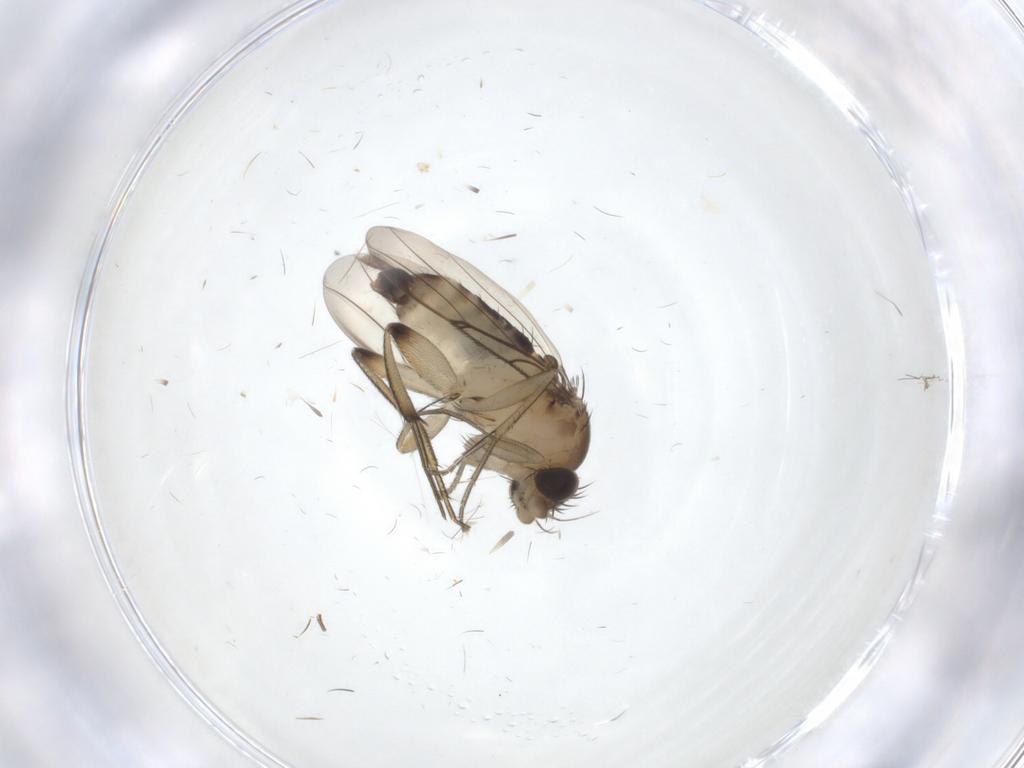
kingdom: Animalia
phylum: Arthropoda
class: Insecta
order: Diptera
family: Phoridae
